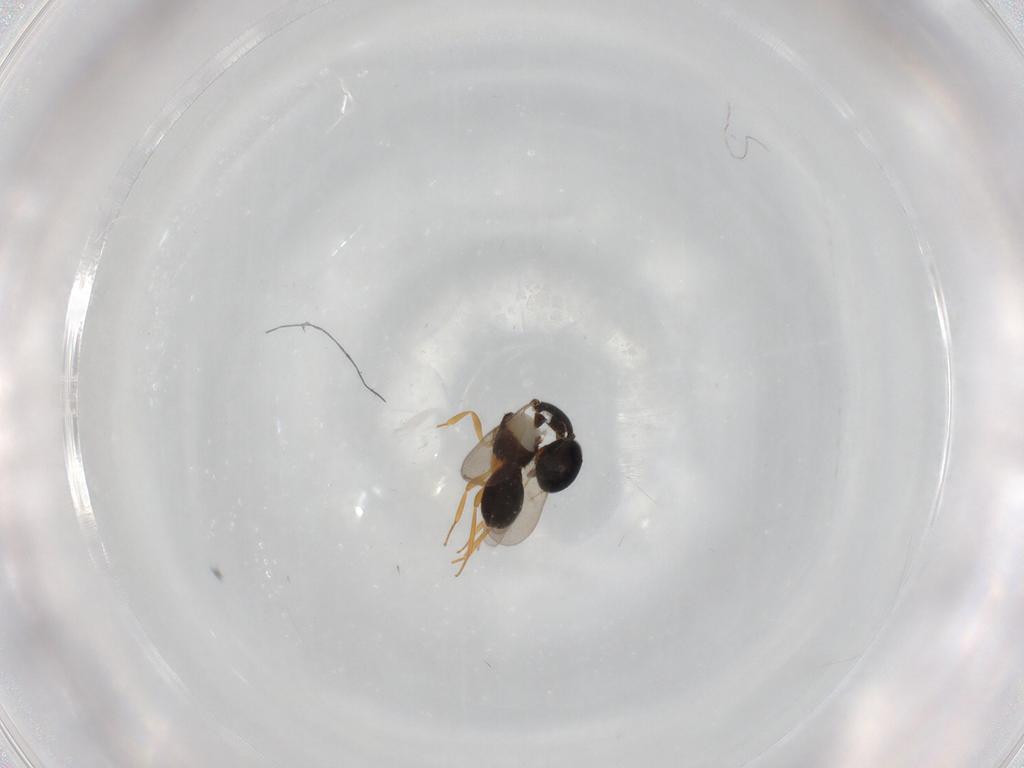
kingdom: Animalia
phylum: Arthropoda
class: Insecta
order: Hymenoptera
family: Scelionidae
